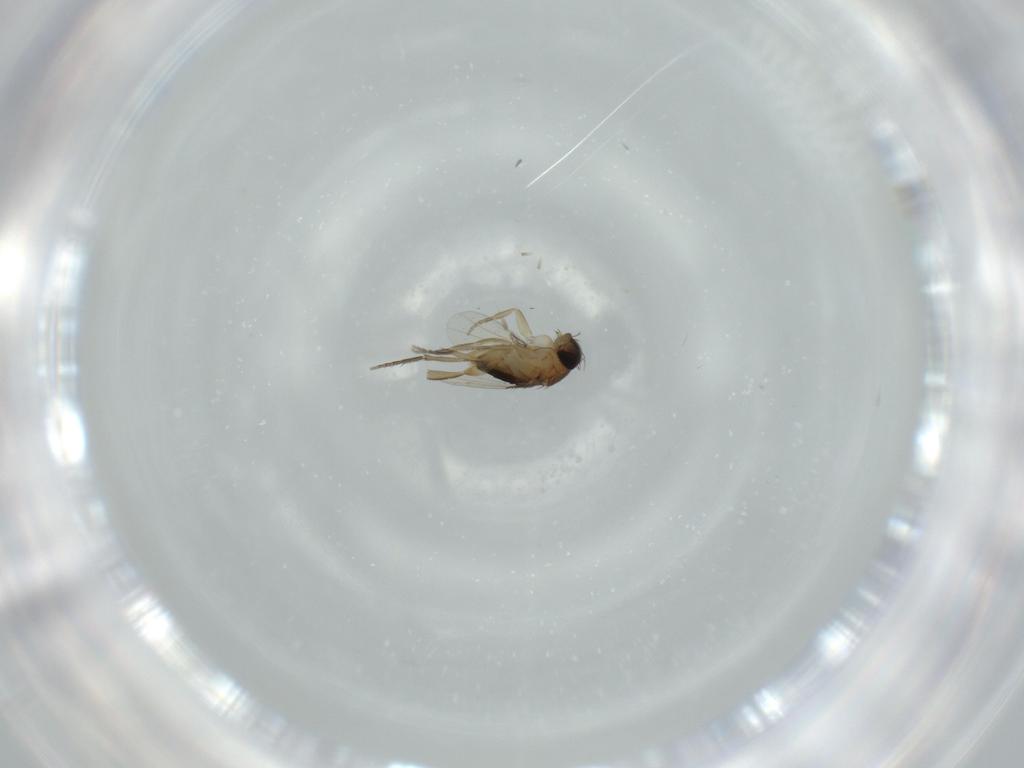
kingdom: Animalia
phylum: Arthropoda
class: Insecta
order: Diptera
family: Phoridae
